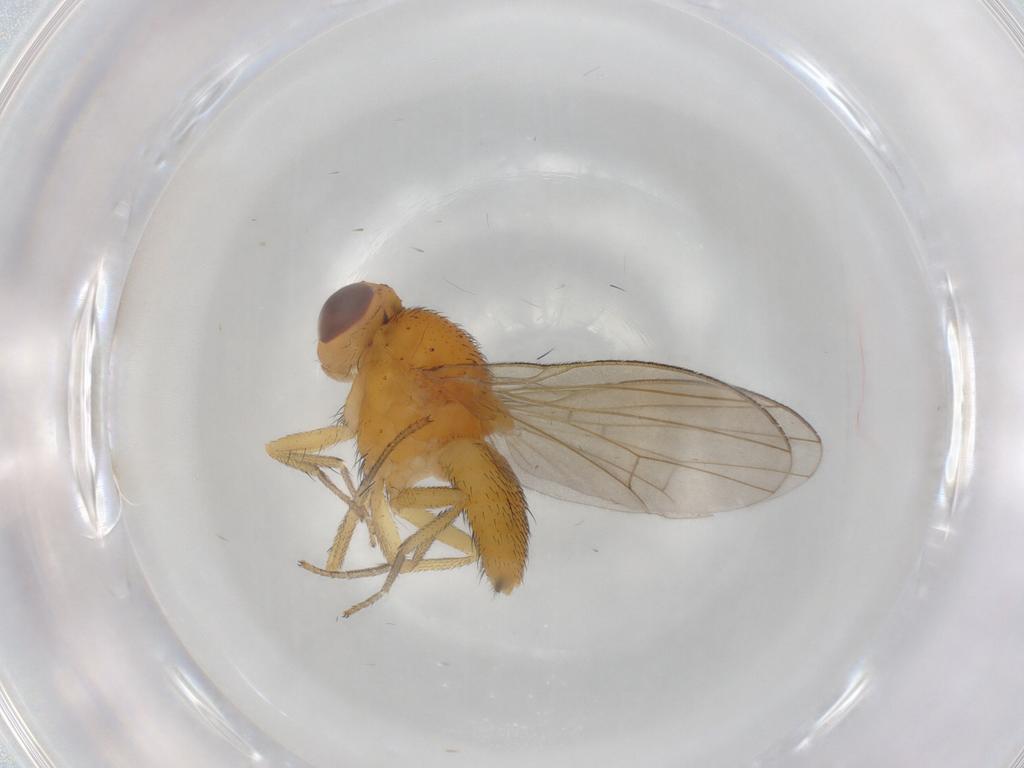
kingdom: Animalia
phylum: Arthropoda
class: Insecta
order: Diptera
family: Lauxaniidae
